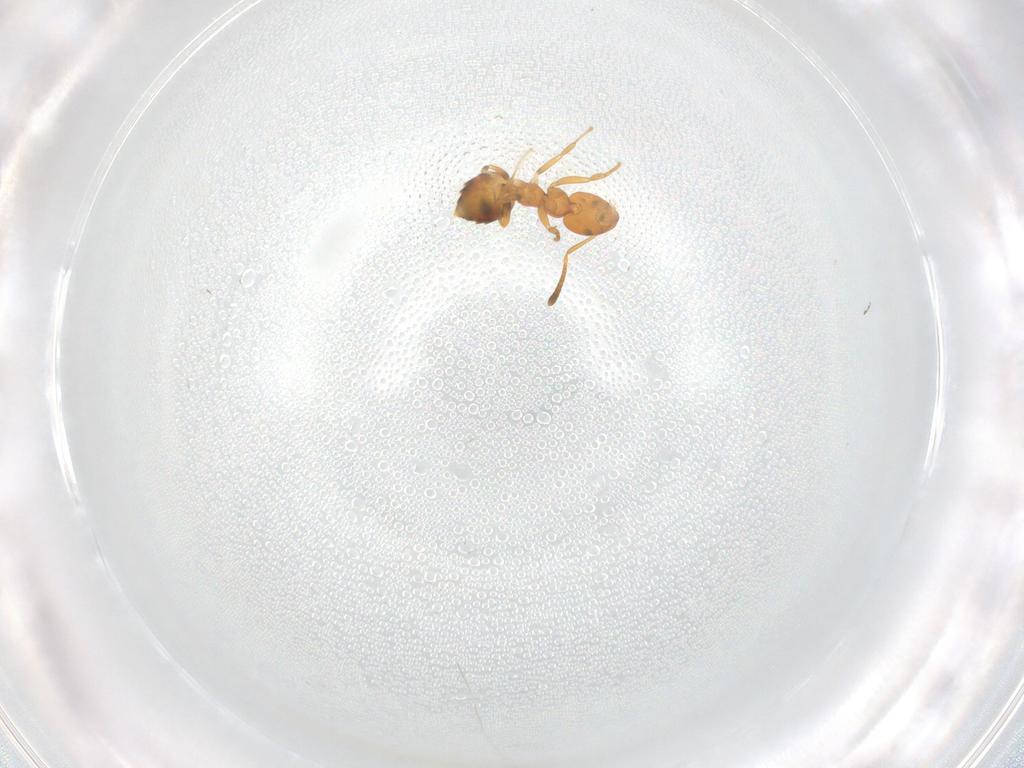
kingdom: Animalia
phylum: Arthropoda
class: Insecta
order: Hymenoptera
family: Formicidae
